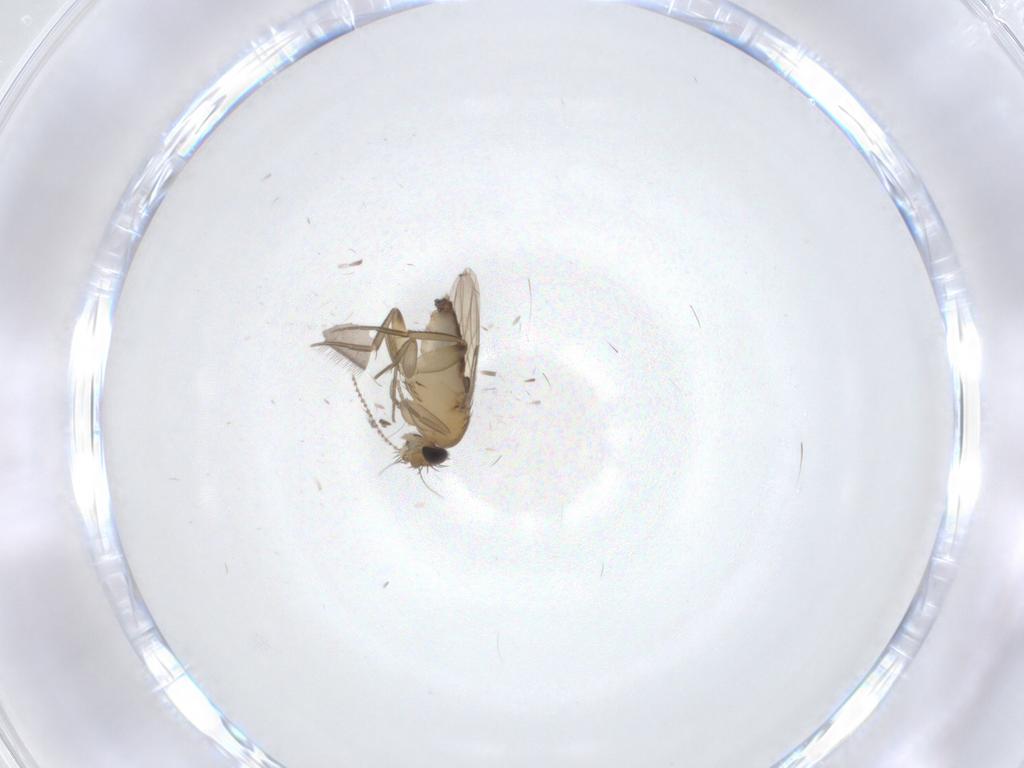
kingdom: Animalia
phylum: Arthropoda
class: Insecta
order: Diptera
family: Phoridae
